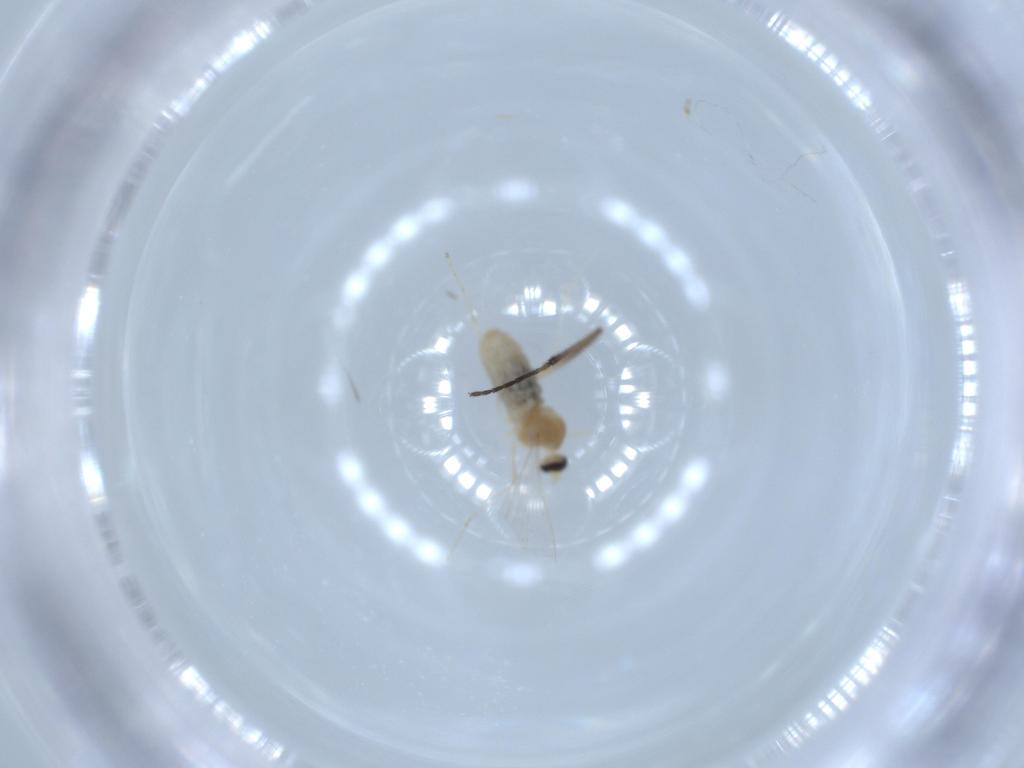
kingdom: Animalia
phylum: Arthropoda
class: Insecta
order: Diptera
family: Cecidomyiidae
